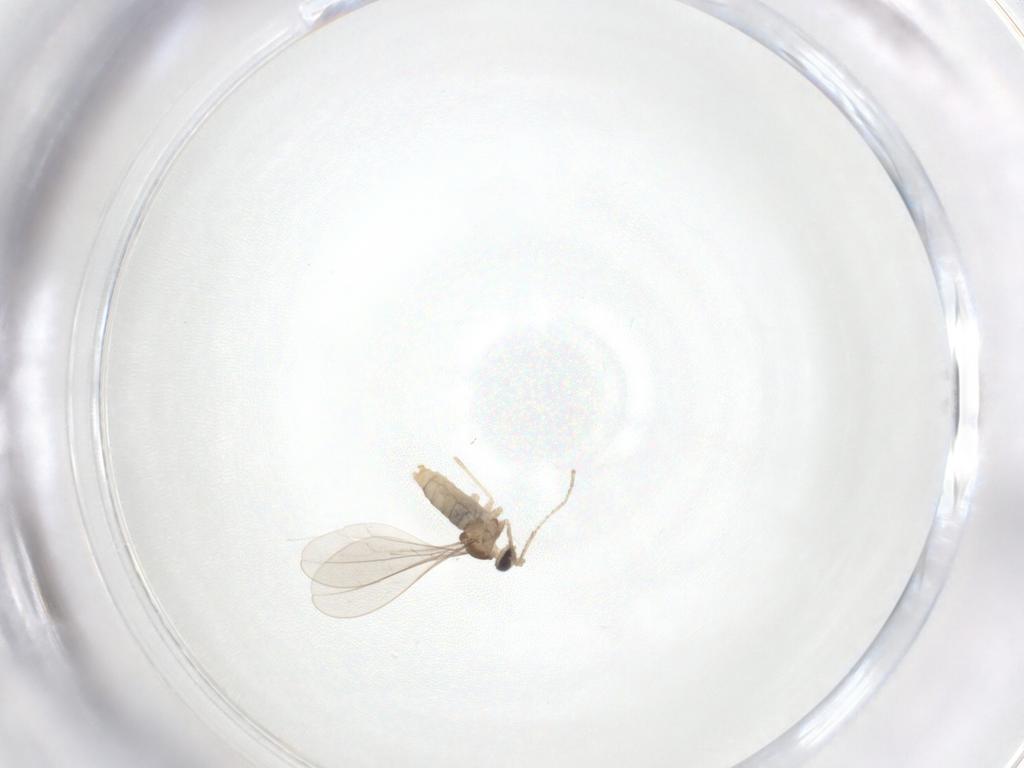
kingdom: Animalia
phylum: Arthropoda
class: Insecta
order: Diptera
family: Cecidomyiidae
